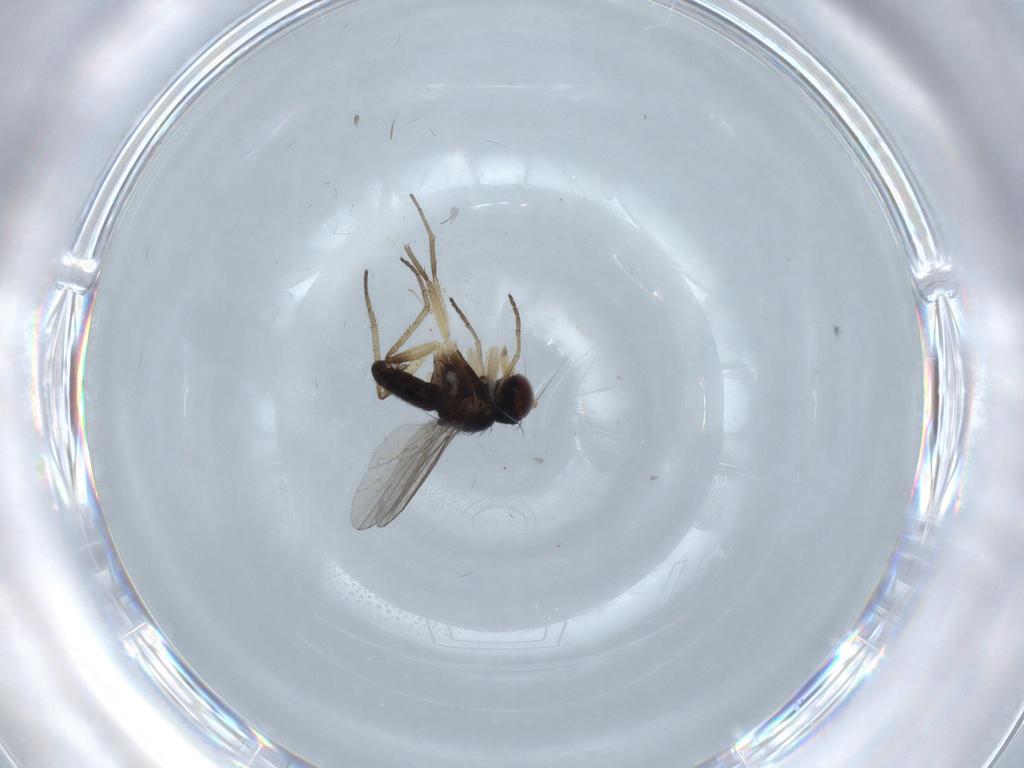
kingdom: Animalia
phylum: Arthropoda
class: Insecta
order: Diptera
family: Dolichopodidae
